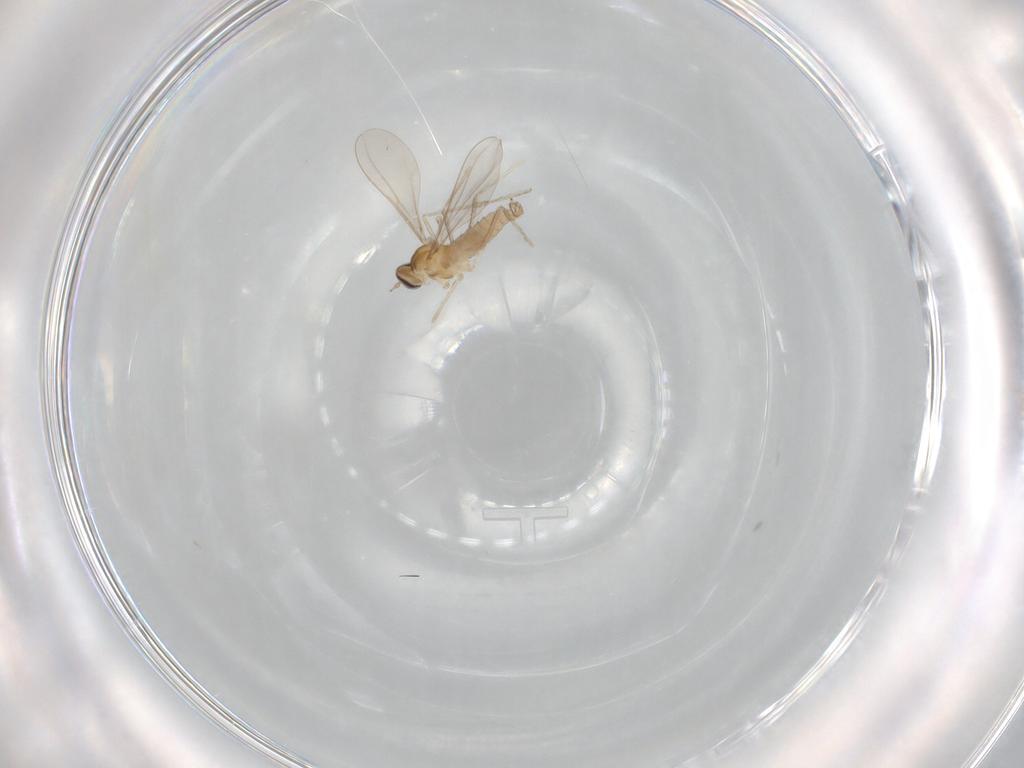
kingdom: Animalia
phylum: Arthropoda
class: Insecta
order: Diptera
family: Cecidomyiidae
